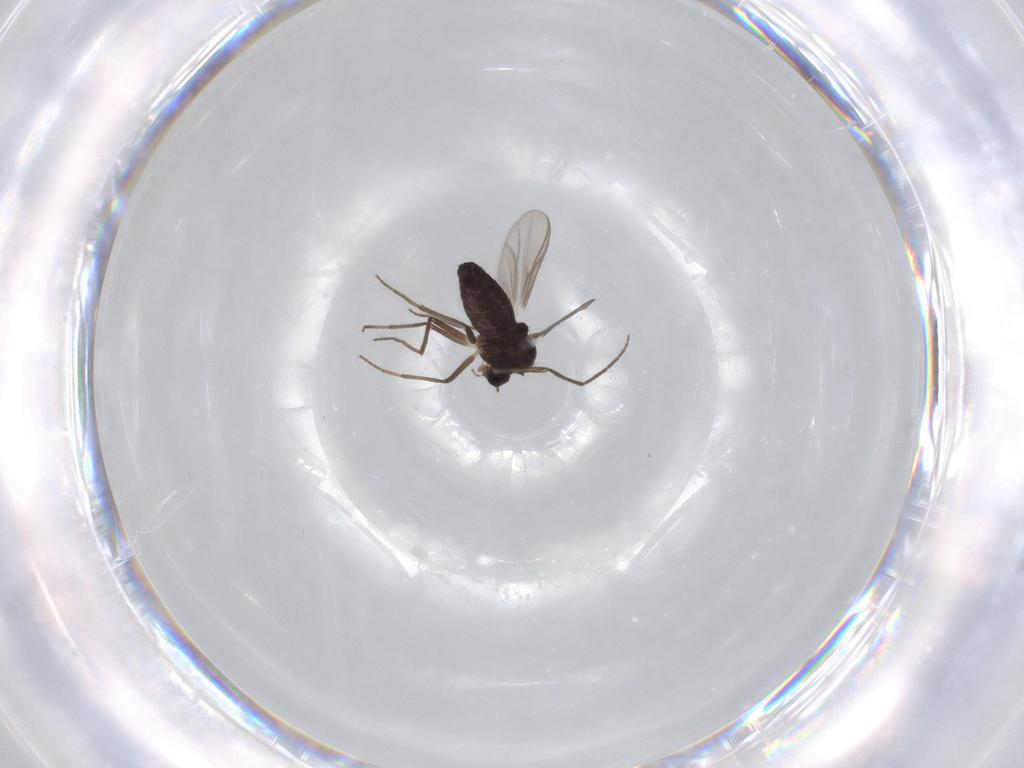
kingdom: Animalia
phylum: Arthropoda
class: Insecta
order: Diptera
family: Chironomidae
